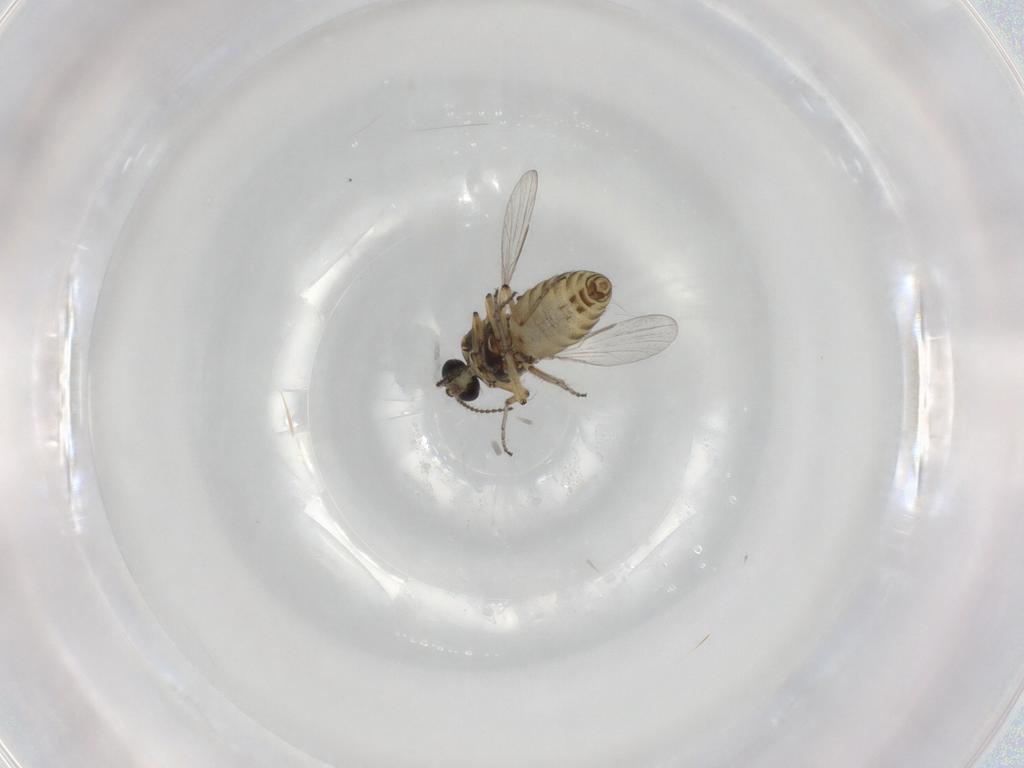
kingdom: Animalia
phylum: Arthropoda
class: Insecta
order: Diptera
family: Ceratopogonidae
